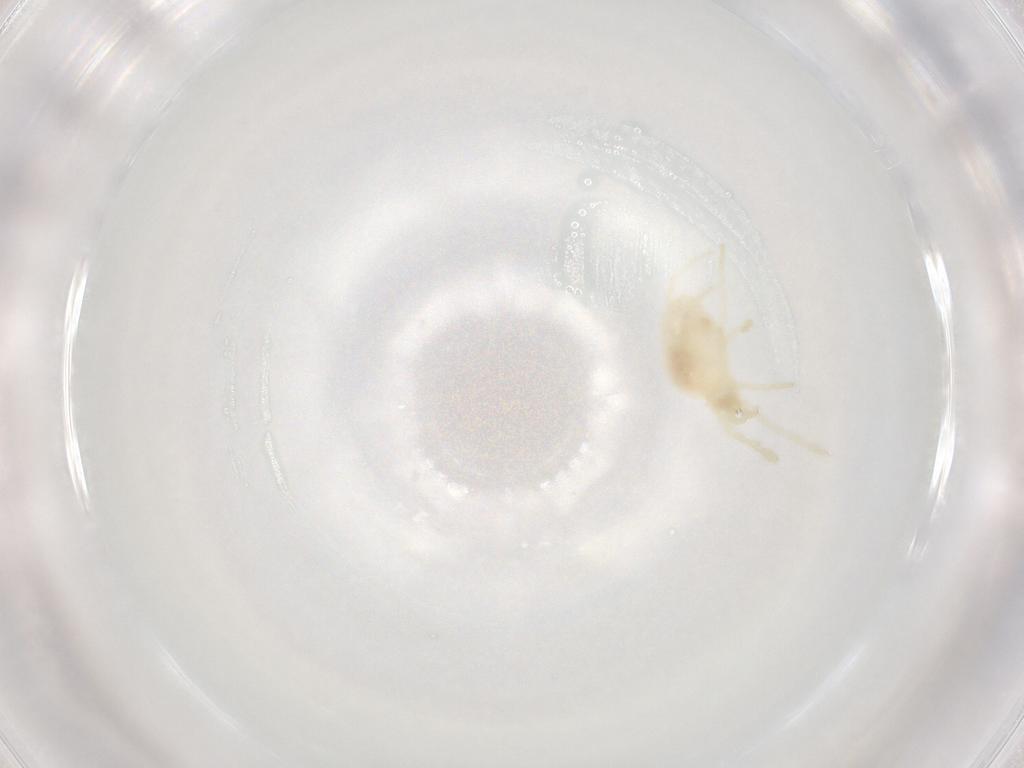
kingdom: Animalia
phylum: Arthropoda
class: Arachnida
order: Trombidiformes
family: Trombidiidae
